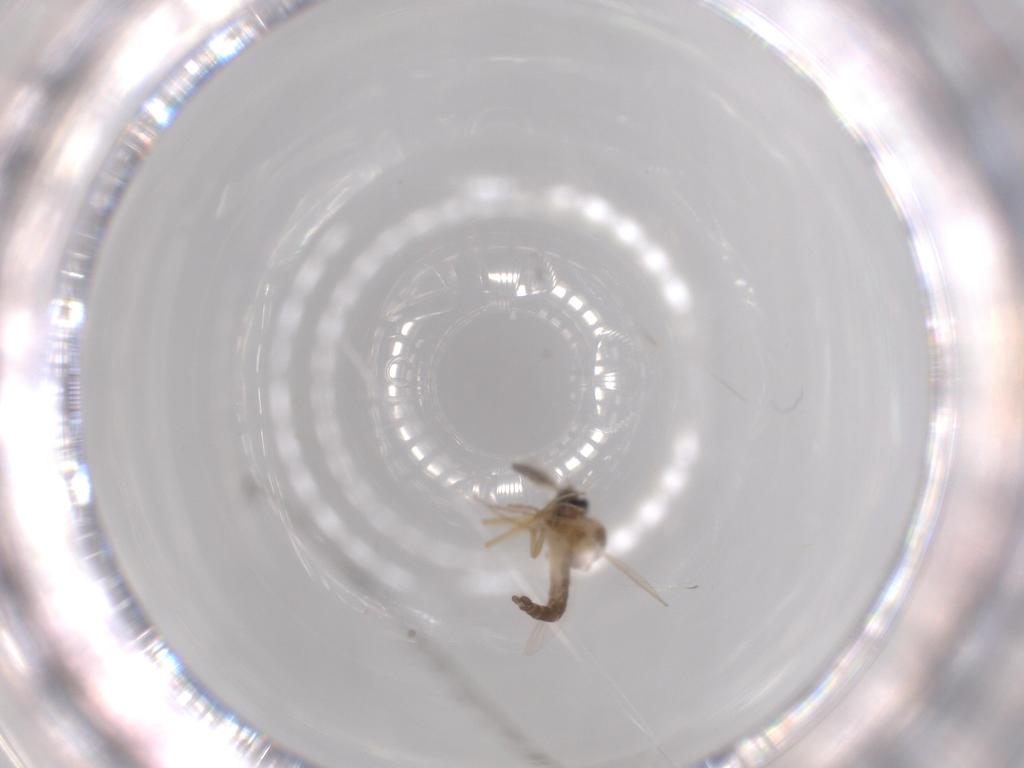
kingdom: Animalia
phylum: Arthropoda
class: Insecta
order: Diptera
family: Ceratopogonidae
